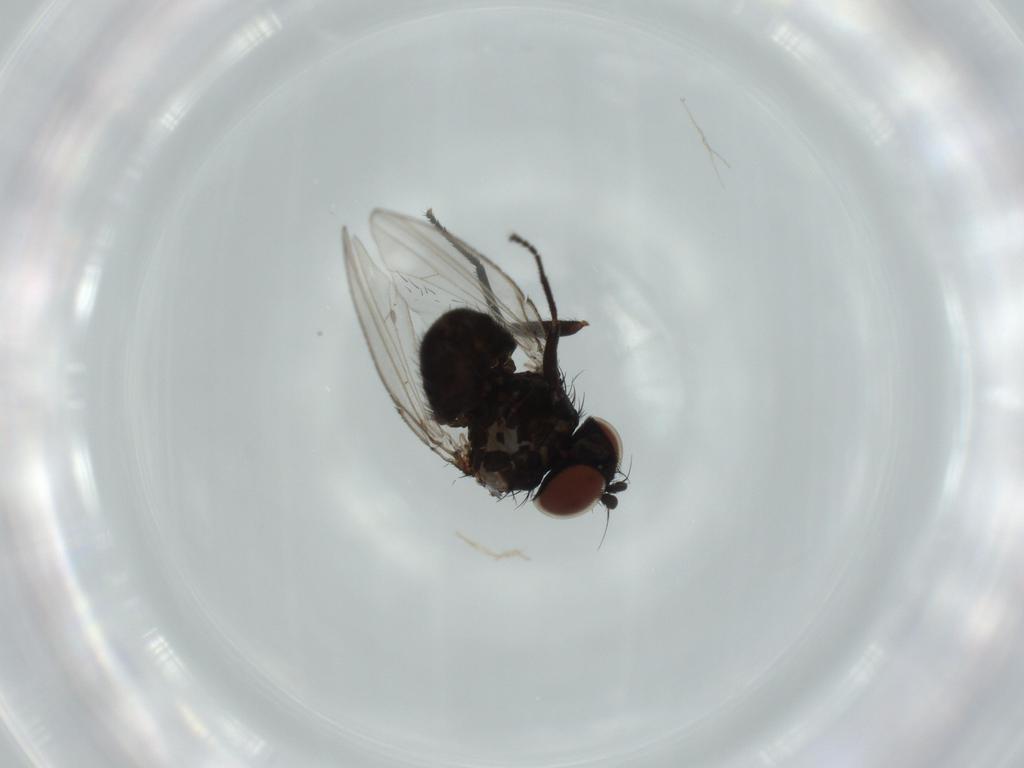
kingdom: Animalia
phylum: Arthropoda
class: Insecta
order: Diptera
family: Milichiidae
